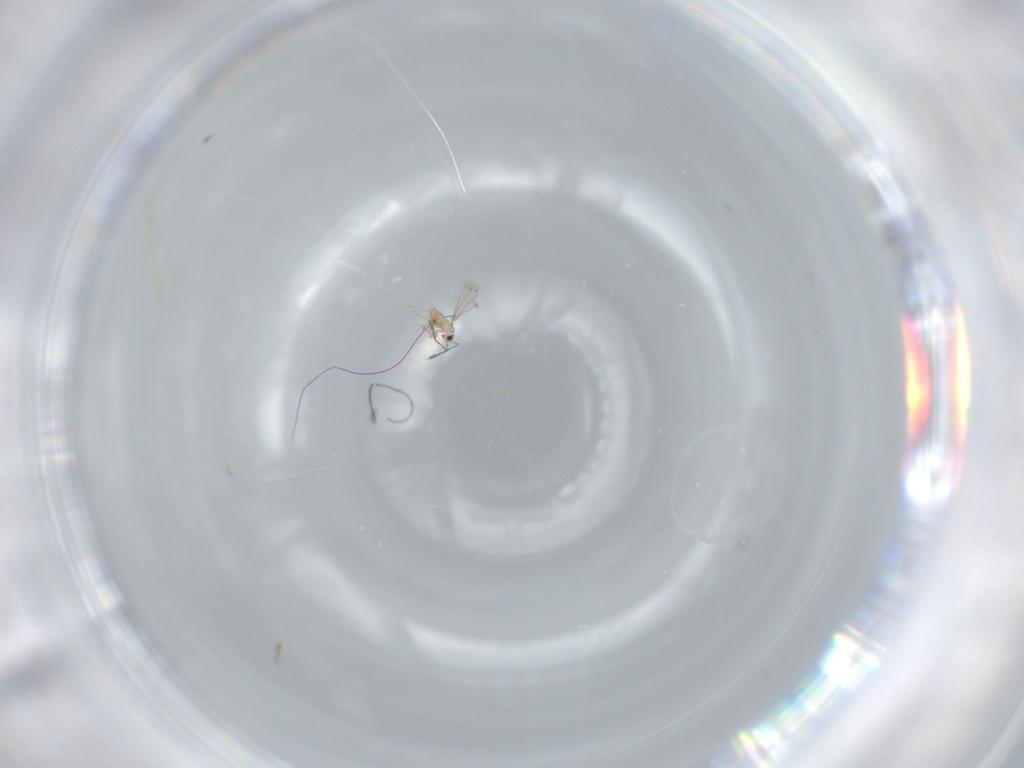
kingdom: Animalia
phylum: Arthropoda
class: Insecta
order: Hymenoptera
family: Mymaridae
